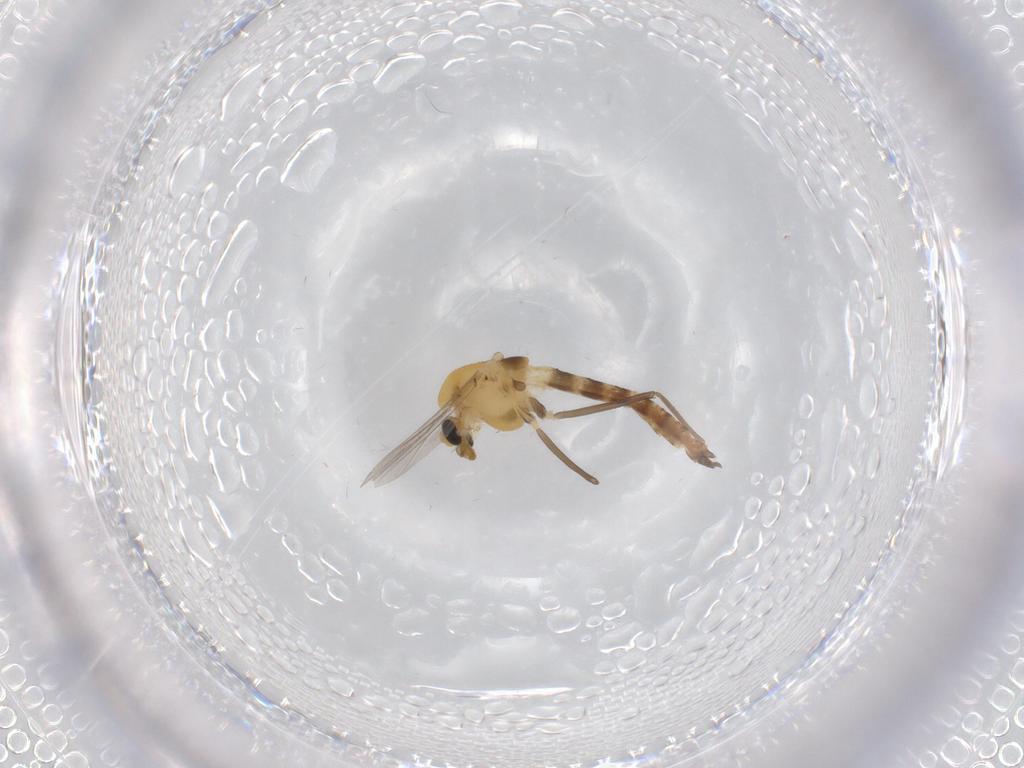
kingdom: Animalia
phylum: Arthropoda
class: Insecta
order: Diptera
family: Chironomidae
